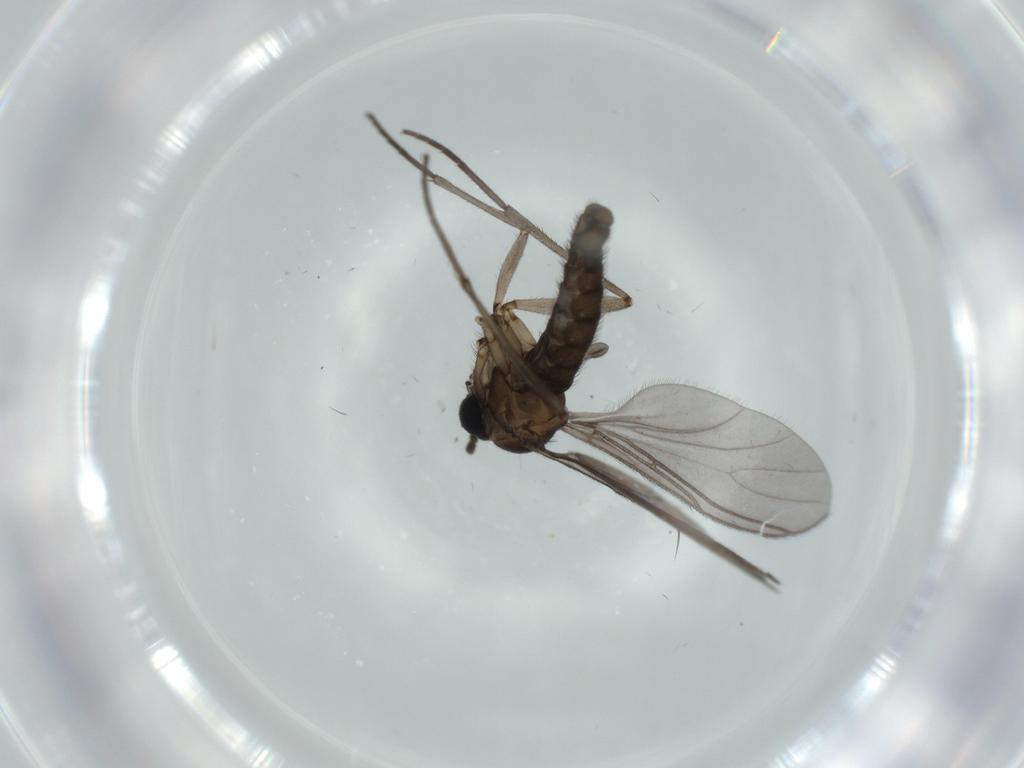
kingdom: Animalia
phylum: Arthropoda
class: Insecta
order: Diptera
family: Sciaridae
